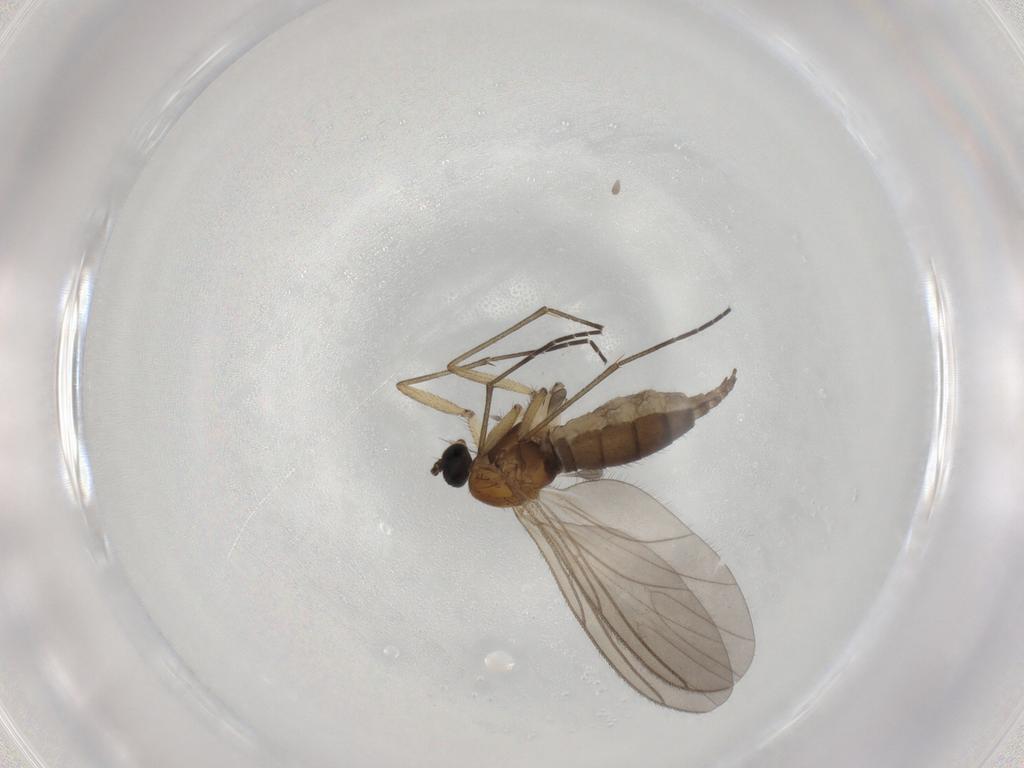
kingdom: Animalia
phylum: Arthropoda
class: Insecta
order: Diptera
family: Sciaridae
